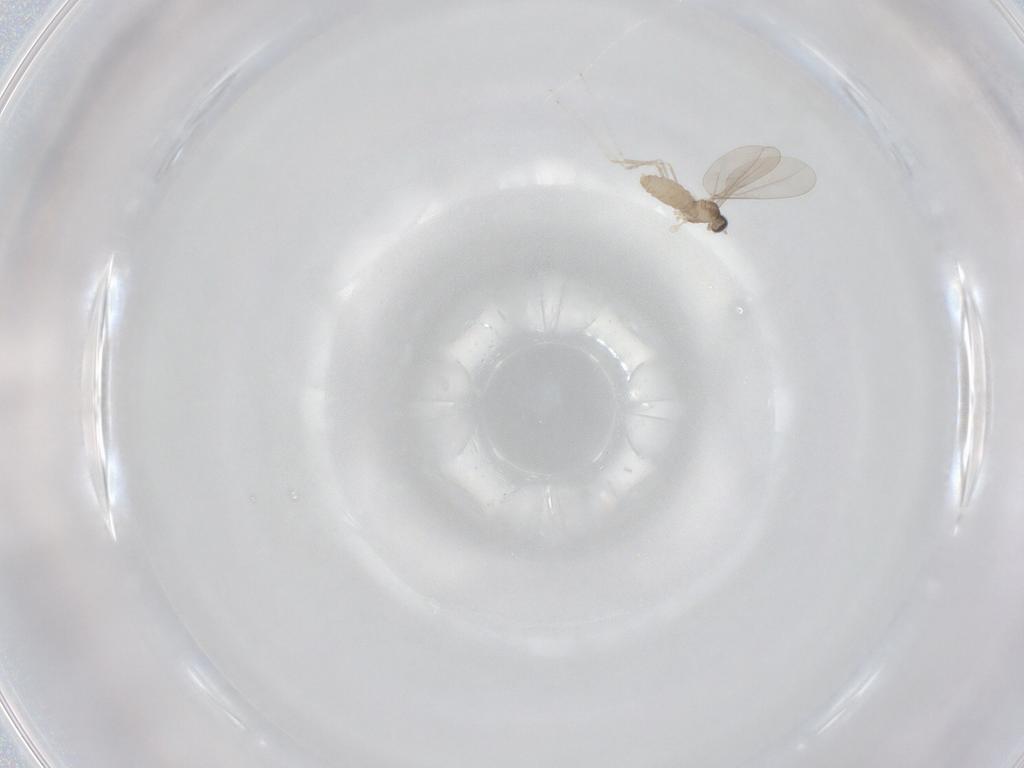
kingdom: Animalia
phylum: Arthropoda
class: Insecta
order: Diptera
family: Cecidomyiidae
